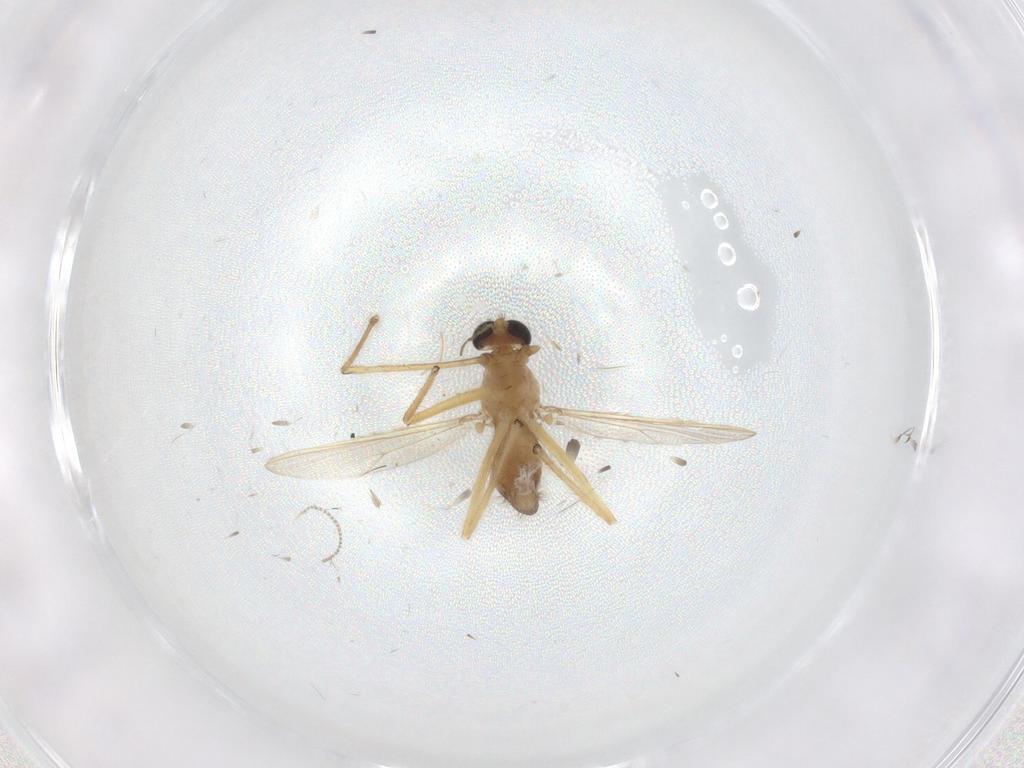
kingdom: Animalia
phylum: Arthropoda
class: Insecta
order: Diptera
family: Chironomidae
